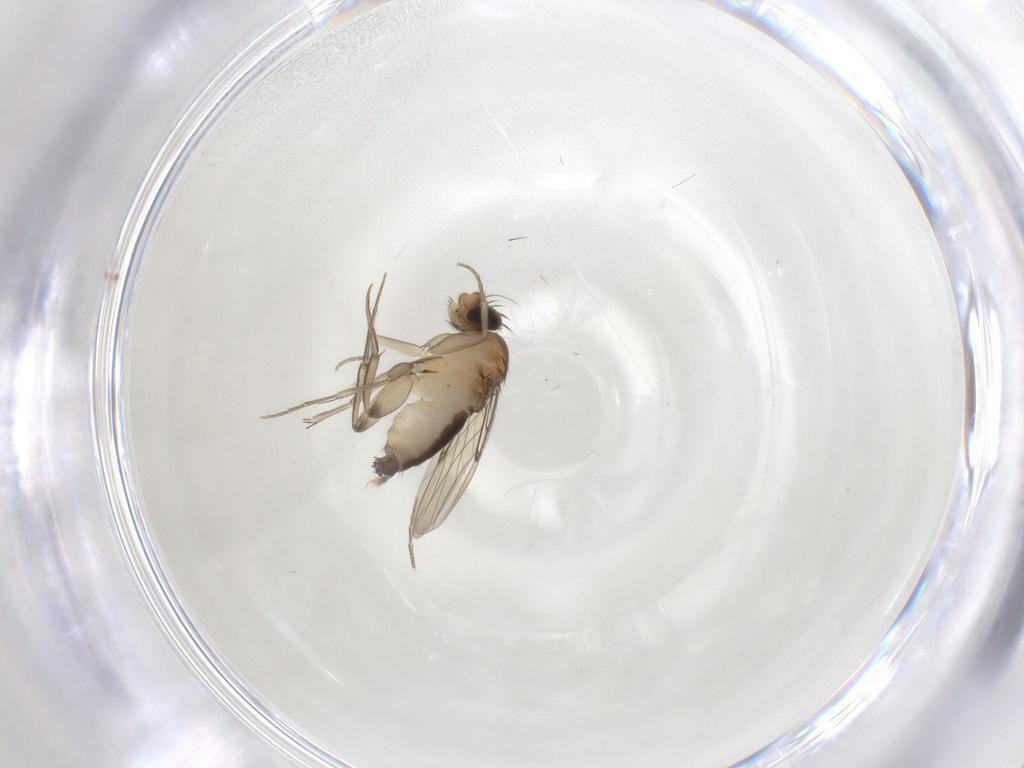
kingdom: Animalia
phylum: Arthropoda
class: Insecta
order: Diptera
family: Phoridae
